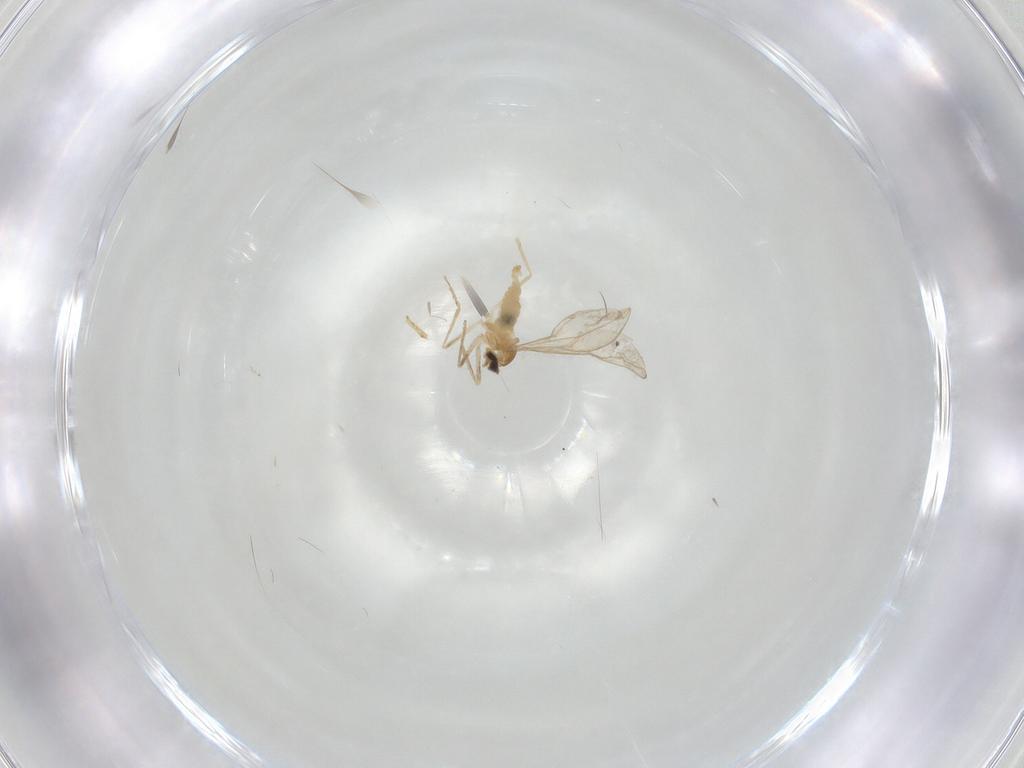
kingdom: Animalia
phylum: Arthropoda
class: Insecta
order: Diptera
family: Cecidomyiidae
